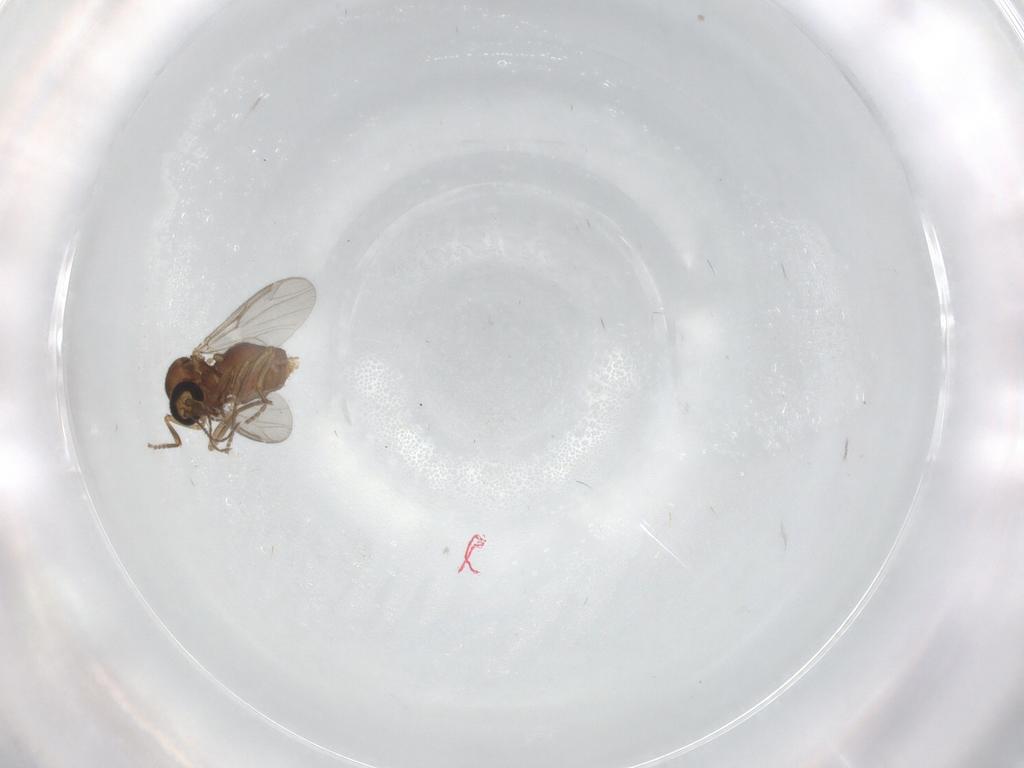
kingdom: Animalia
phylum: Arthropoda
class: Insecta
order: Diptera
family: Ceratopogonidae
